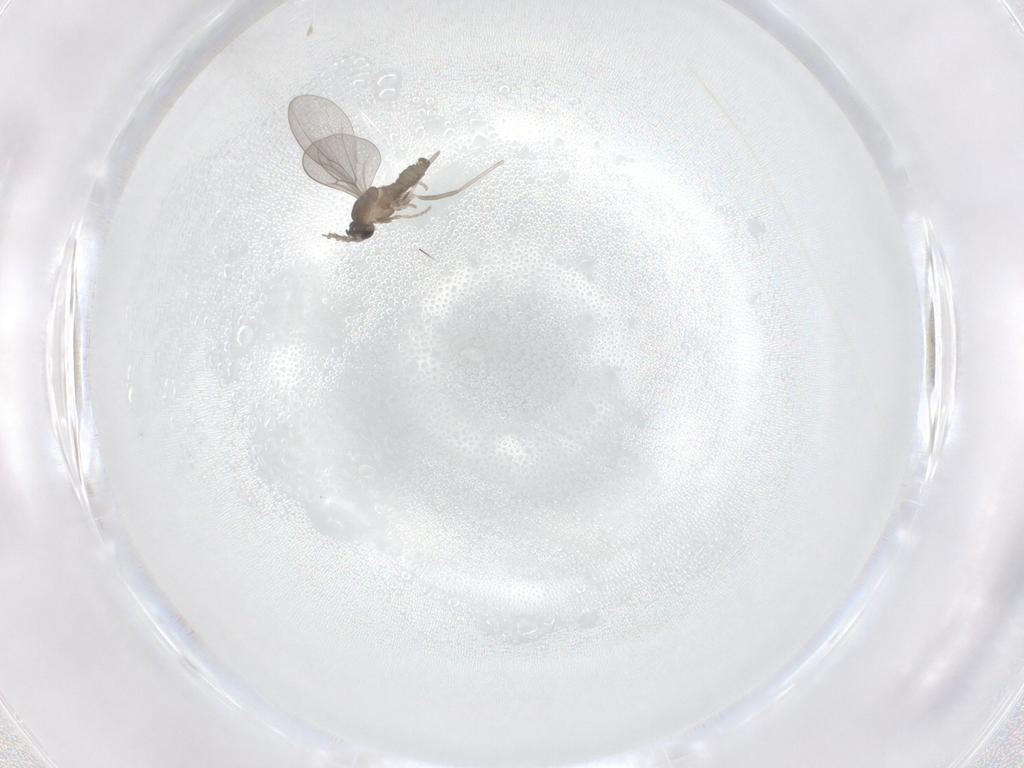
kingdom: Animalia
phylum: Arthropoda
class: Insecta
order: Diptera
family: Cecidomyiidae
